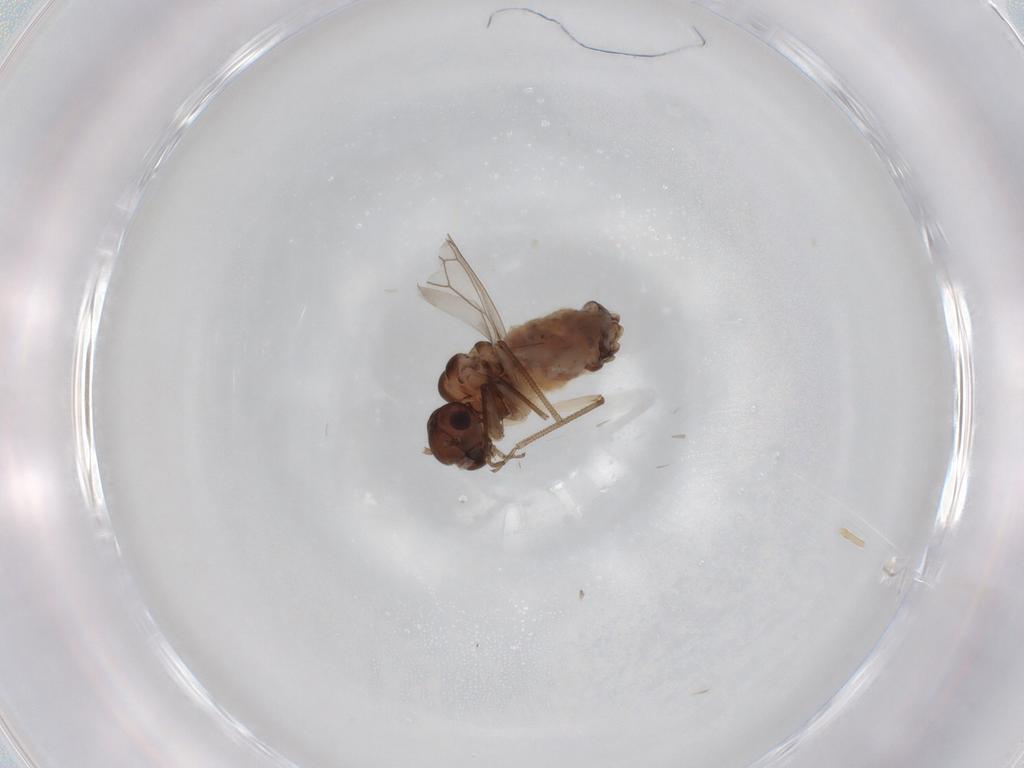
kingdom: Animalia
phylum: Arthropoda
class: Insecta
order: Psocodea
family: Peripsocidae
